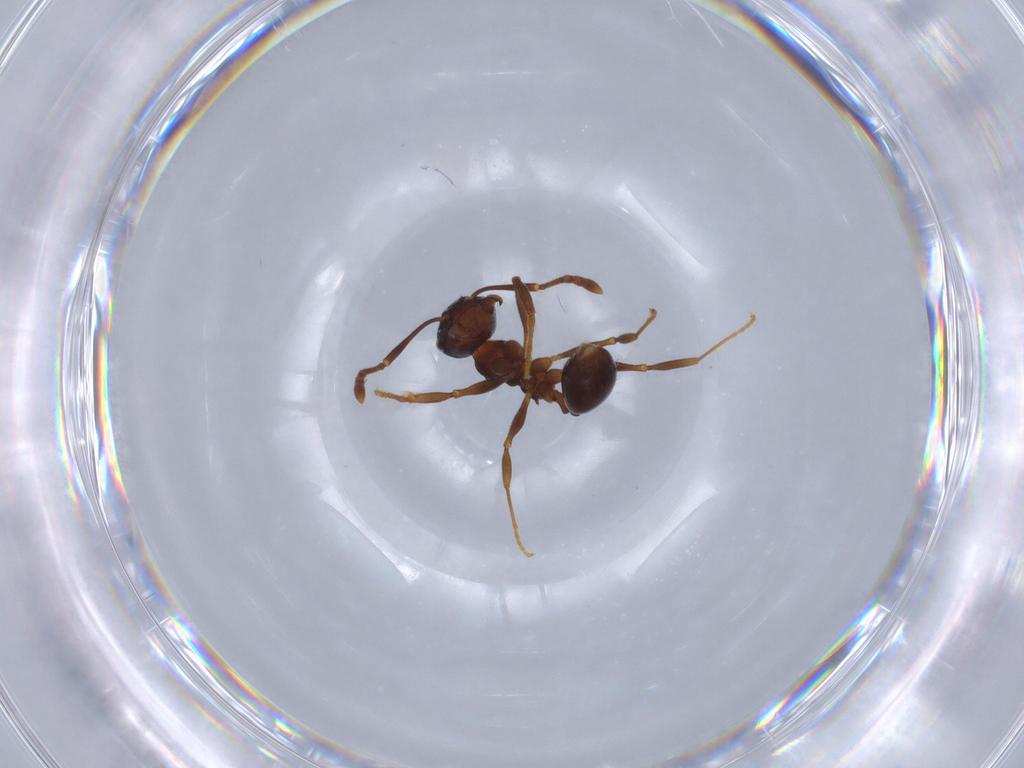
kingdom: Animalia
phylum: Arthropoda
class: Insecta
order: Hymenoptera
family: Formicidae
